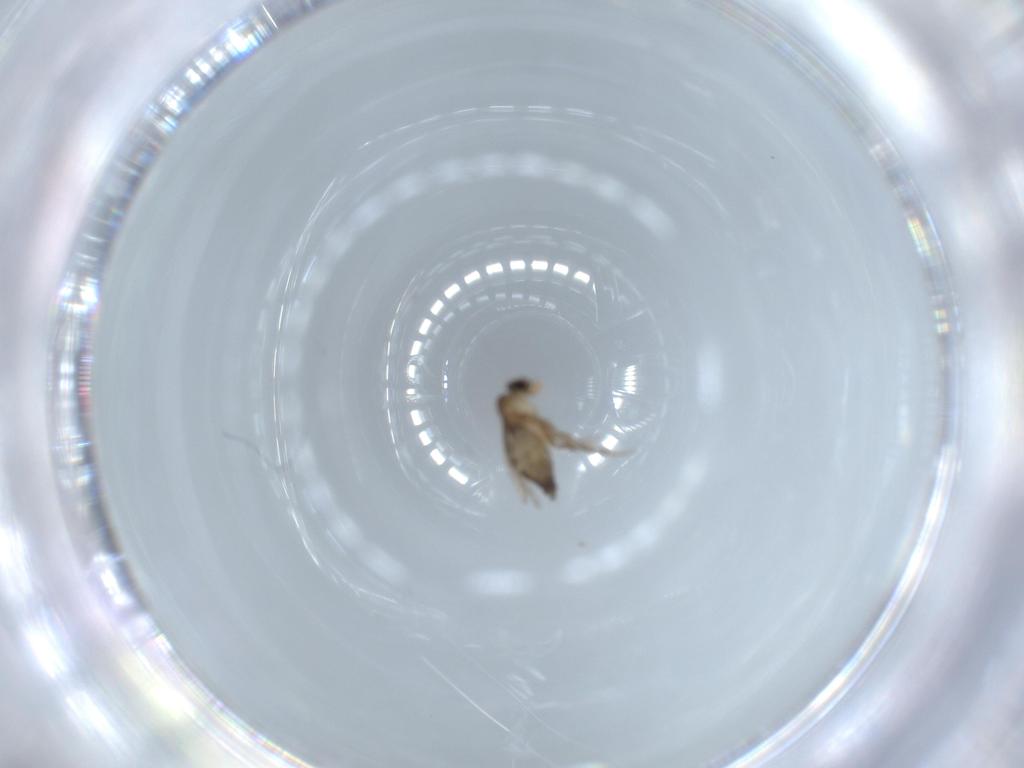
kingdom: Animalia
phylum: Arthropoda
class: Insecta
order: Diptera
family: Phoridae
